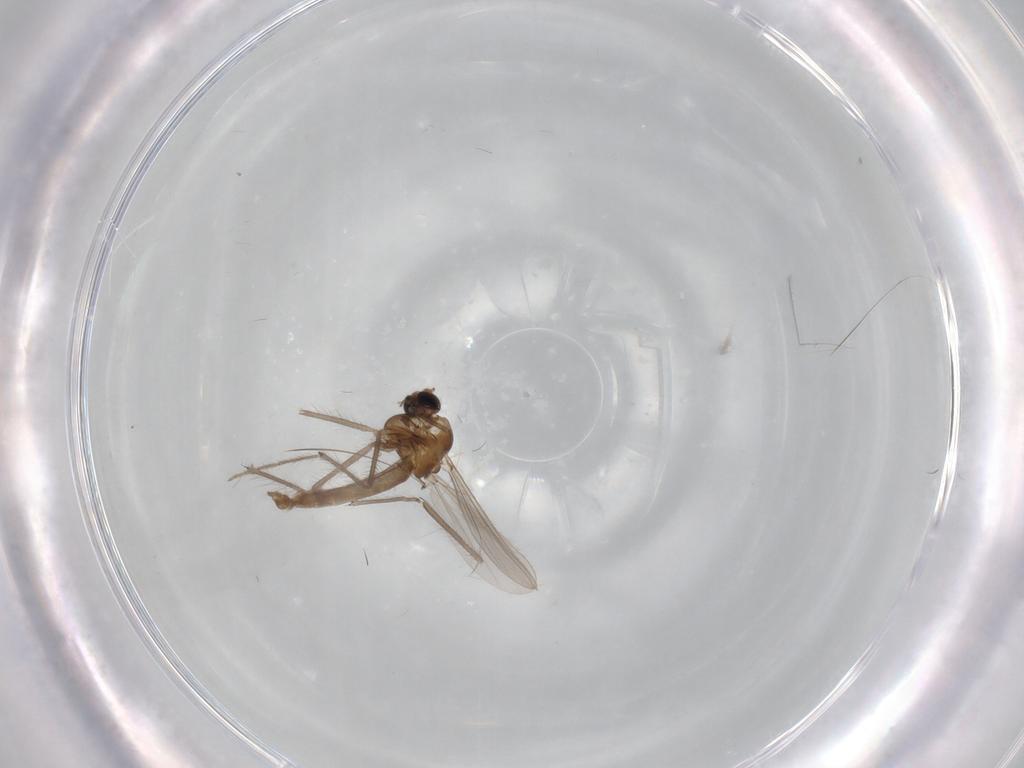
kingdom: Animalia
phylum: Arthropoda
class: Insecta
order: Diptera
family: Chironomidae
